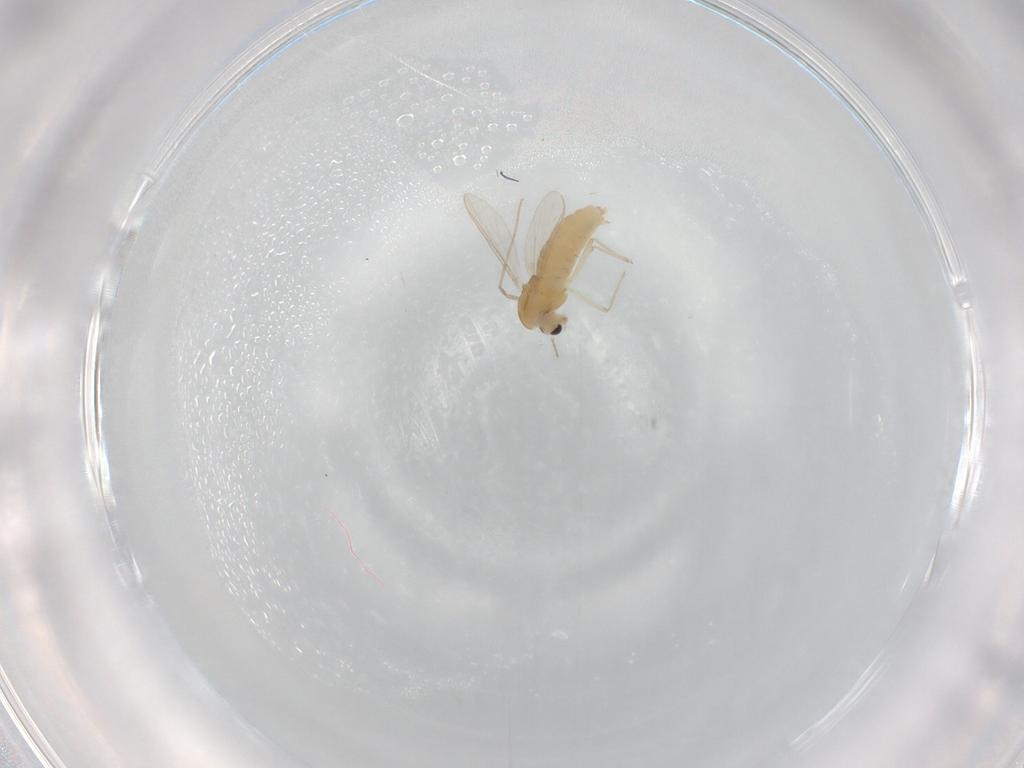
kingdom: Animalia
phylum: Arthropoda
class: Insecta
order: Diptera
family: Chironomidae
